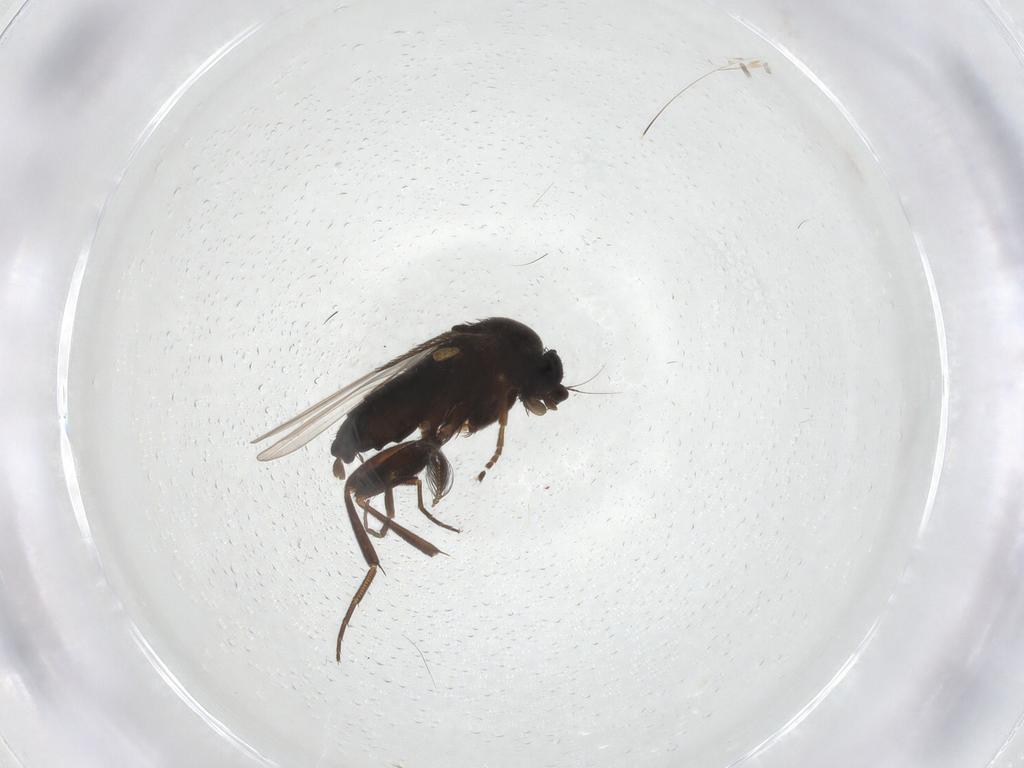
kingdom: Animalia
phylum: Arthropoda
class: Insecta
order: Diptera
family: Phoridae
